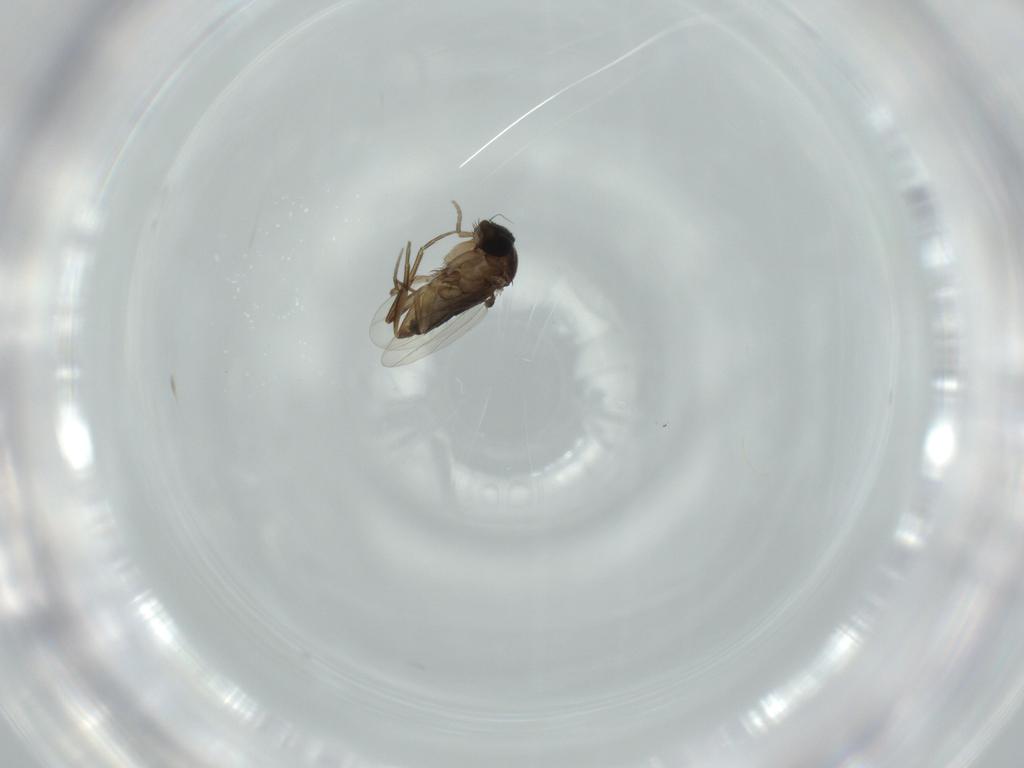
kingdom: Animalia
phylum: Arthropoda
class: Insecta
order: Diptera
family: Phoridae
